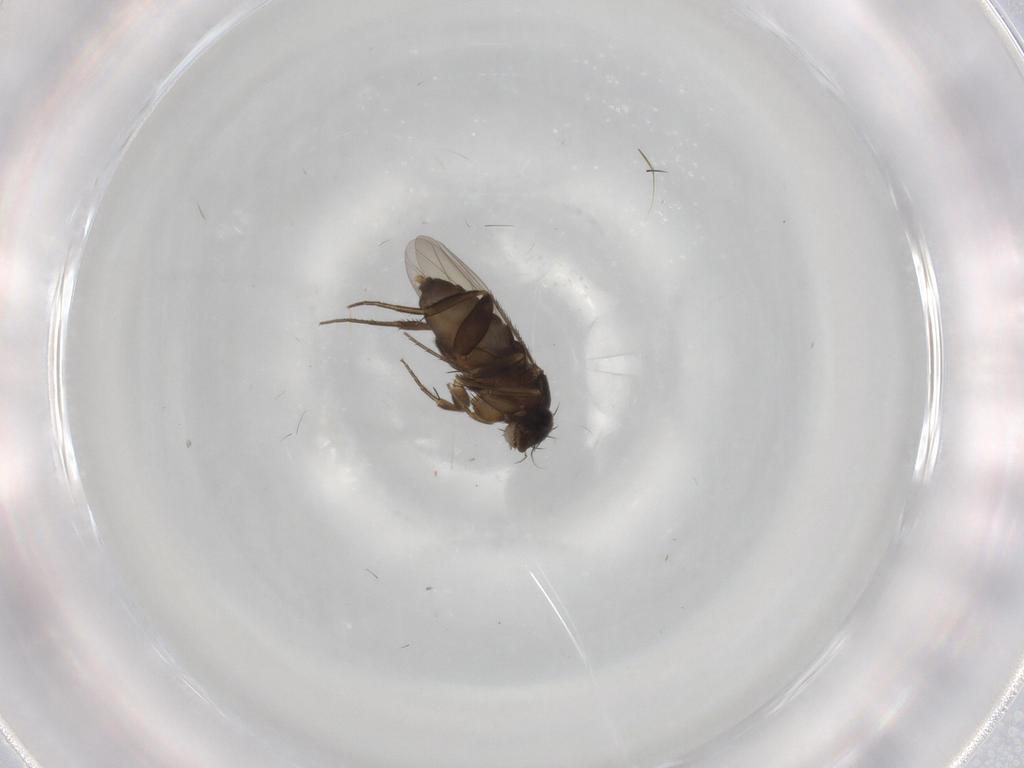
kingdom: Animalia
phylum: Arthropoda
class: Insecta
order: Diptera
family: Phoridae
